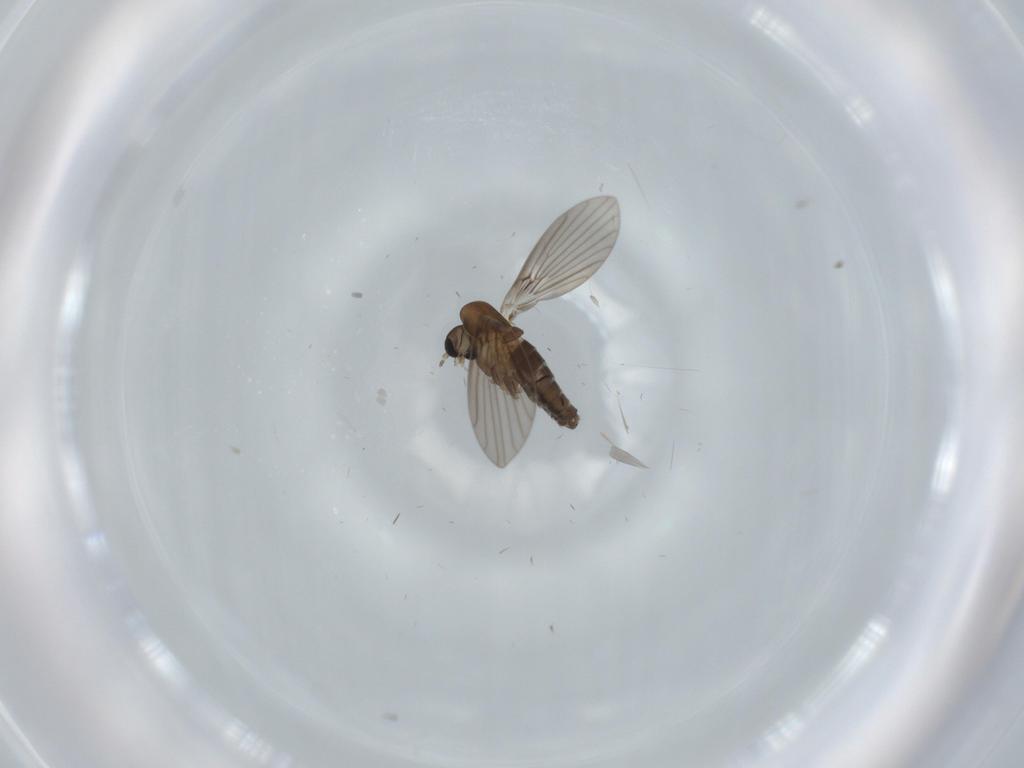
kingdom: Animalia
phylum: Arthropoda
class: Insecta
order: Diptera
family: Psychodidae
